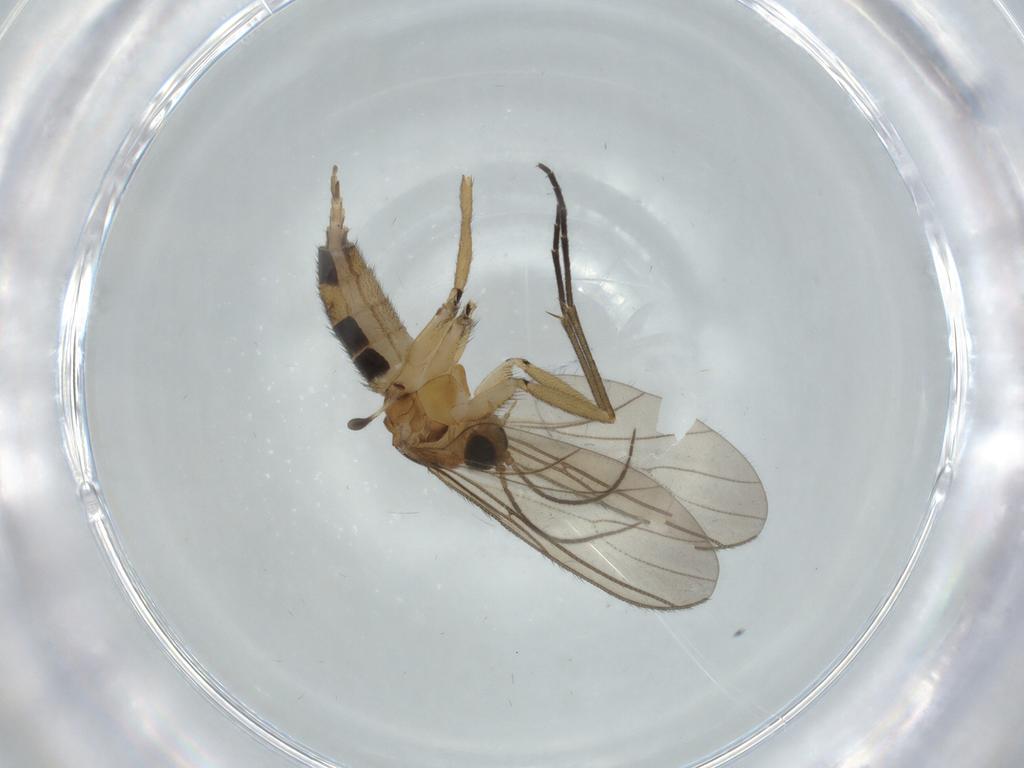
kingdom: Animalia
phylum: Arthropoda
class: Insecta
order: Diptera
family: Sciaridae
